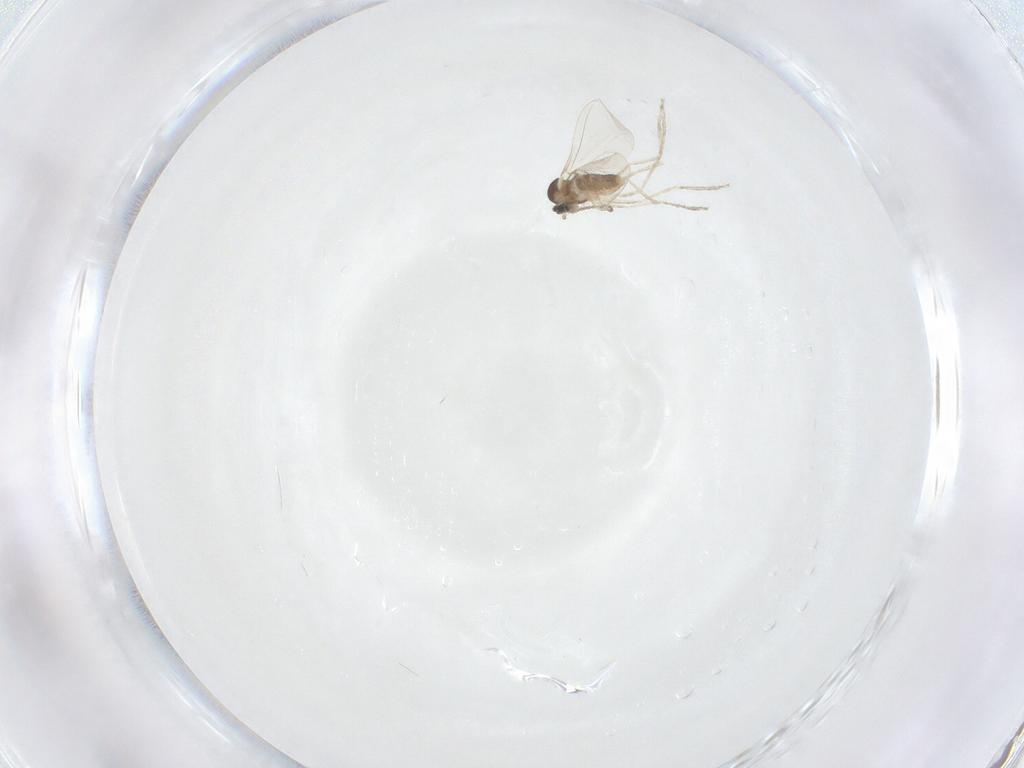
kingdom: Animalia
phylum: Arthropoda
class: Insecta
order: Diptera
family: Cecidomyiidae
